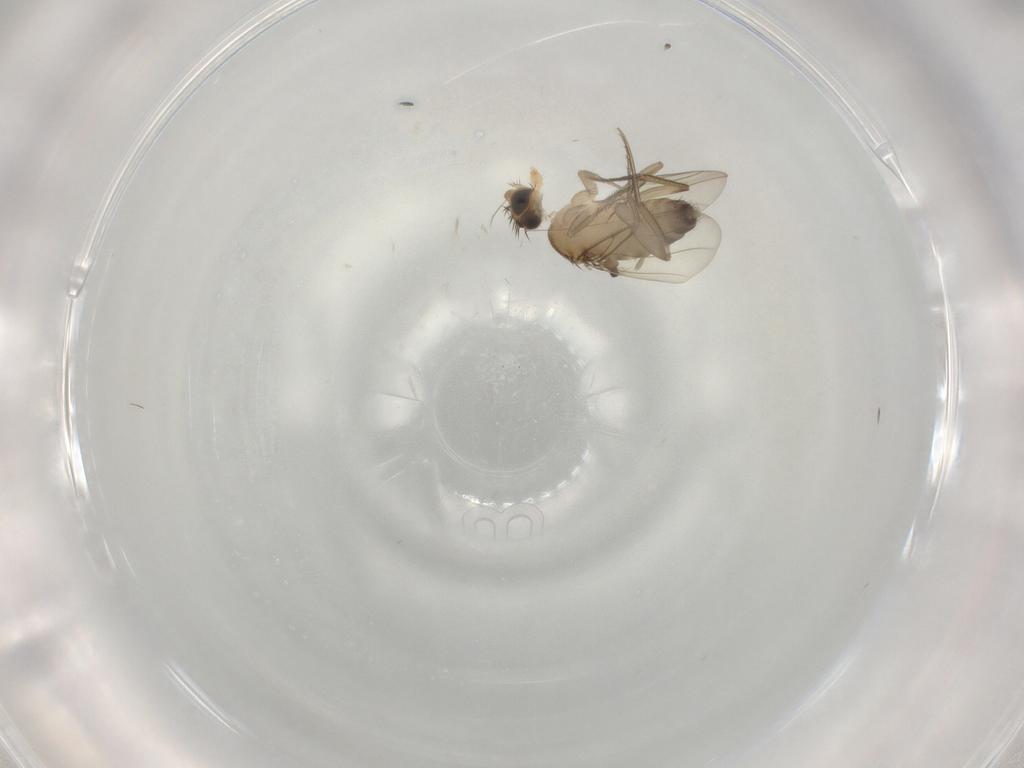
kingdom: Animalia
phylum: Arthropoda
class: Insecta
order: Diptera
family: Phoridae
